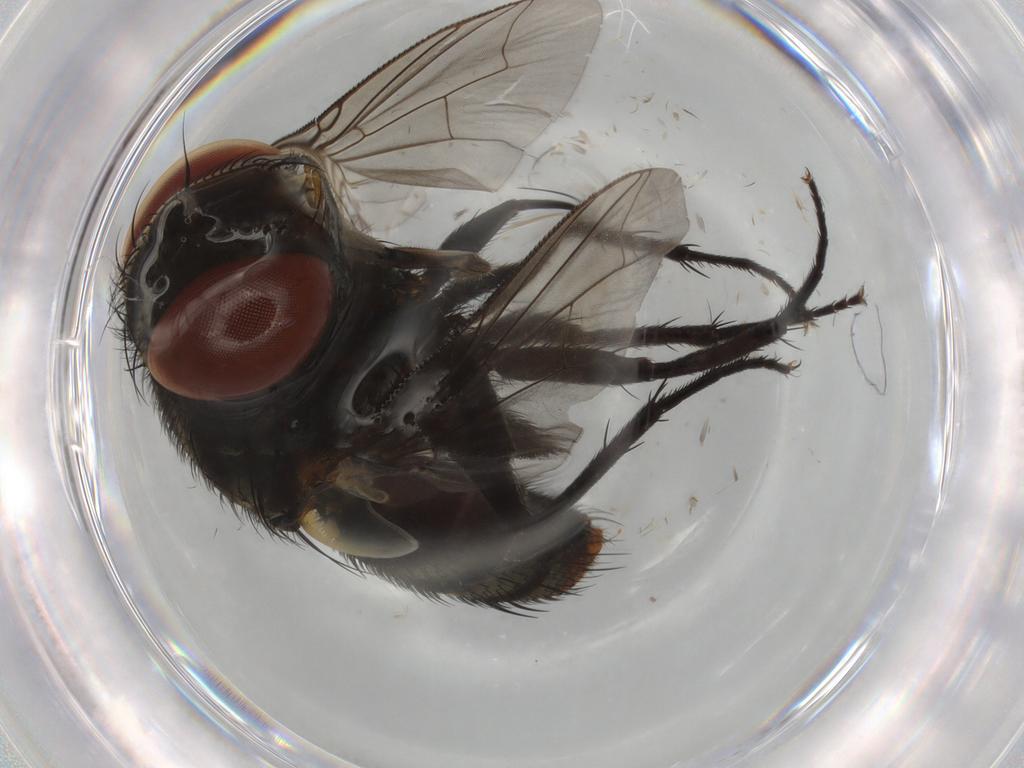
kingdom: Animalia
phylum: Arthropoda
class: Insecta
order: Diptera
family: Sarcophagidae
